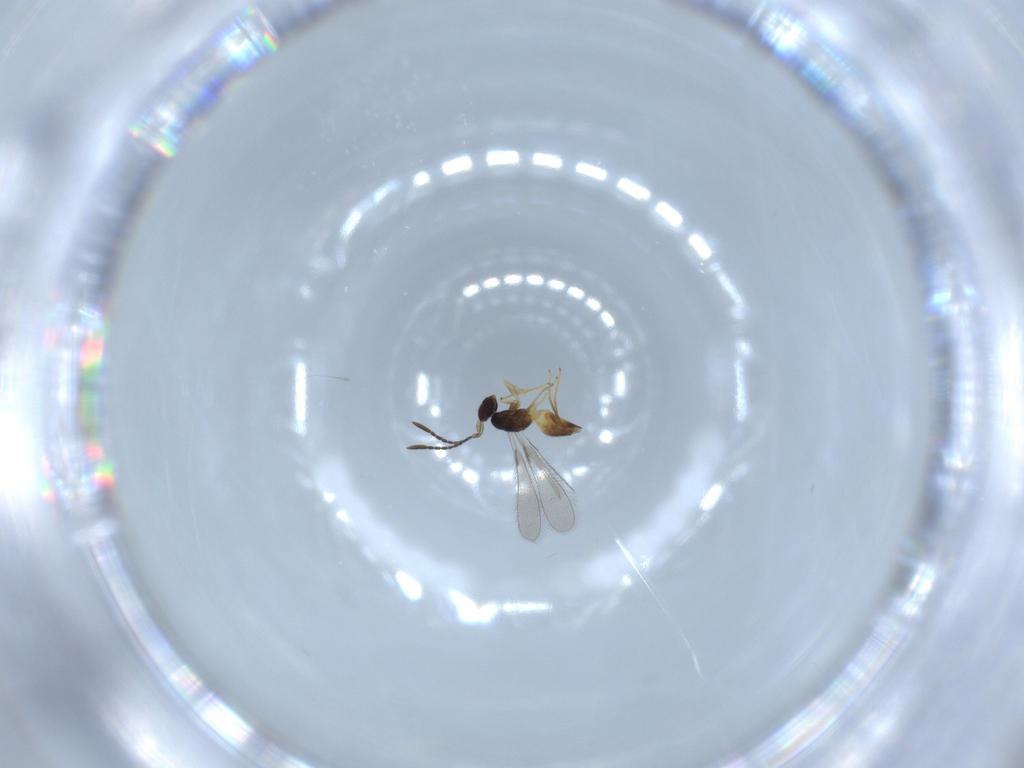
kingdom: Animalia
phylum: Arthropoda
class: Insecta
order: Hymenoptera
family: Mymaridae
